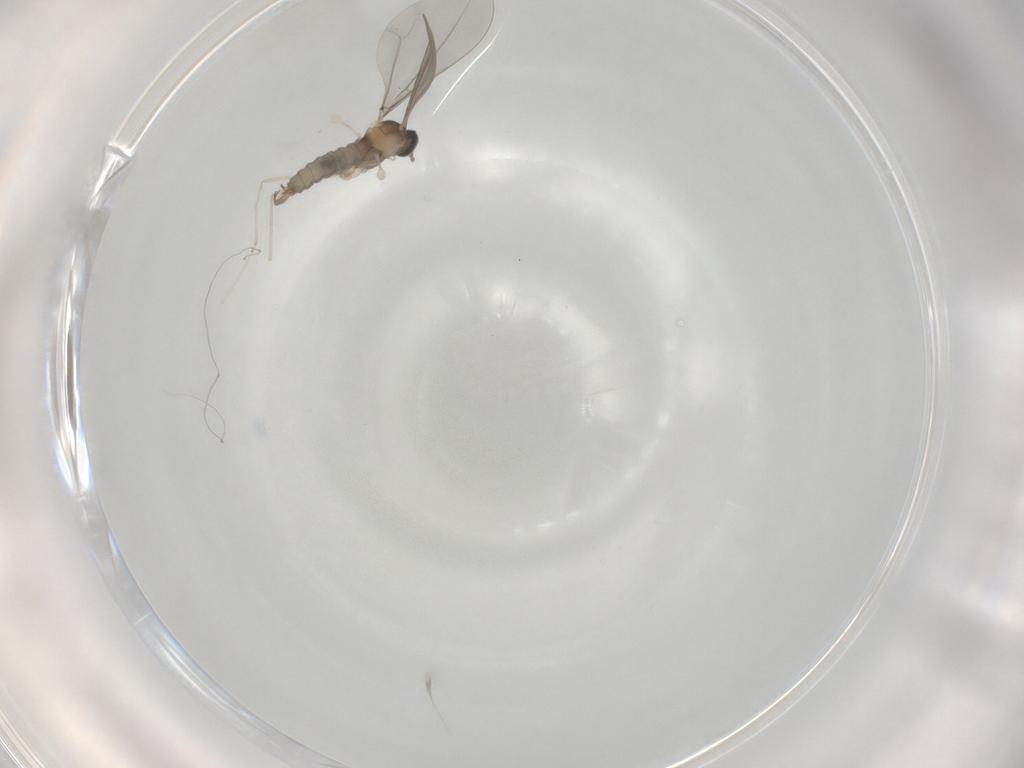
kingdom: Animalia
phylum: Arthropoda
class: Insecta
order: Diptera
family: Cecidomyiidae
